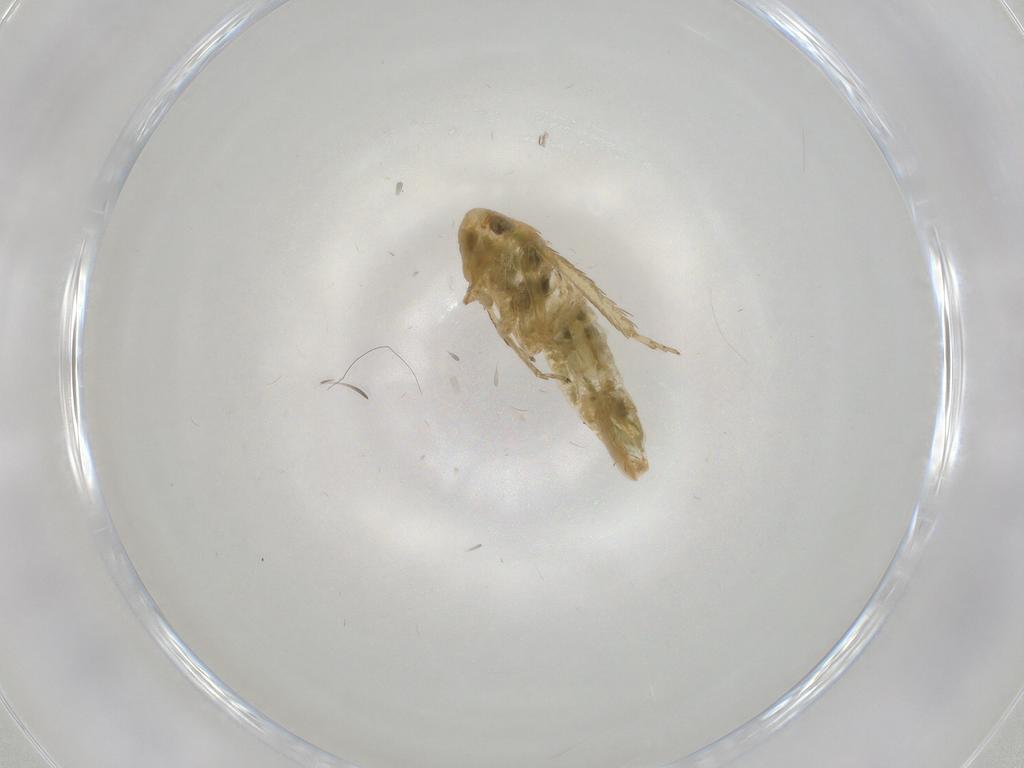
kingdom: Animalia
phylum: Arthropoda
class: Insecta
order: Hemiptera
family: Cicadellidae
